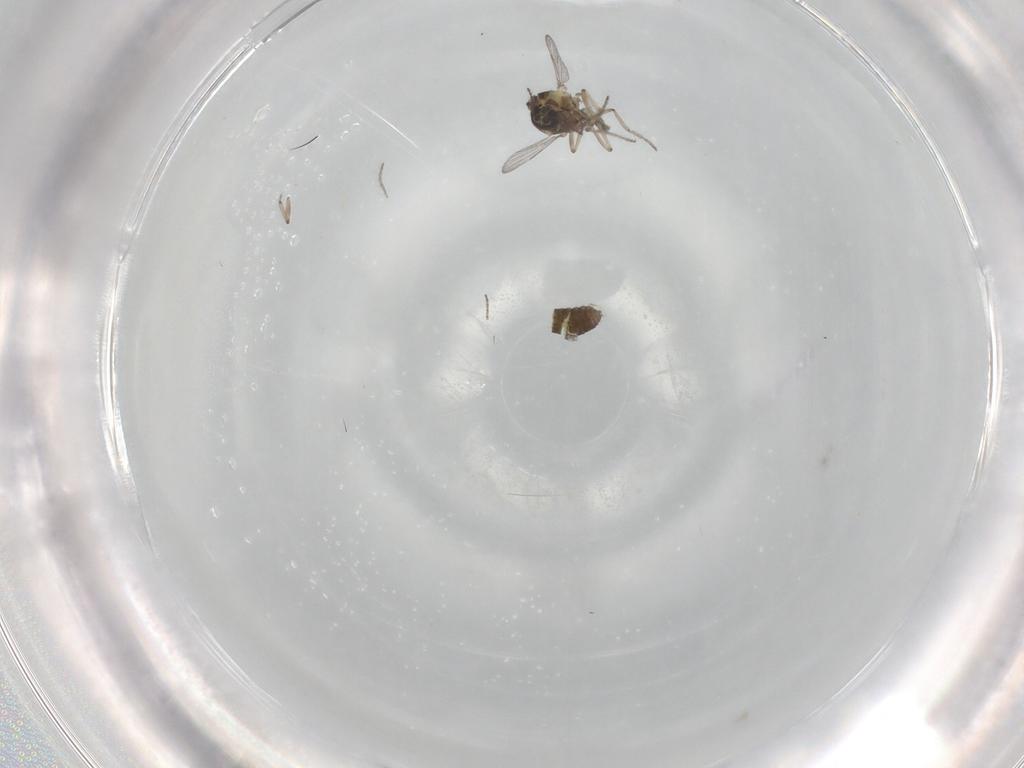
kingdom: Animalia
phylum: Arthropoda
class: Insecta
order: Diptera
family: Ceratopogonidae
